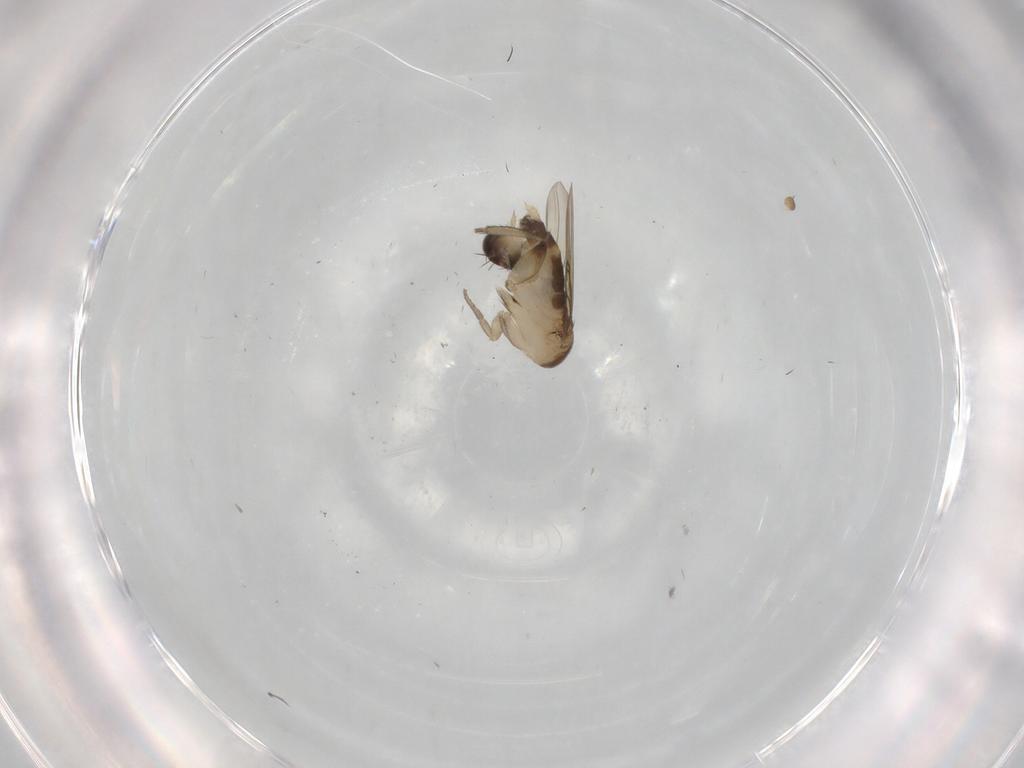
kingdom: Animalia
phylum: Arthropoda
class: Insecta
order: Diptera
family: Phoridae
